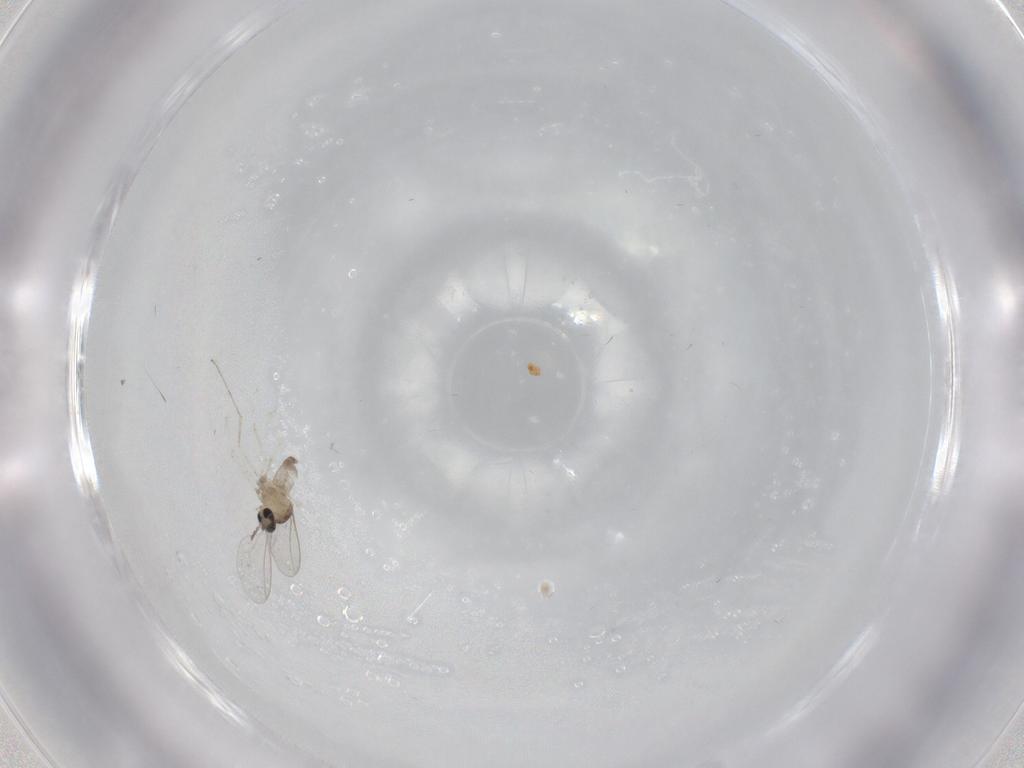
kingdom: Animalia
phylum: Arthropoda
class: Insecta
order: Diptera
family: Cecidomyiidae
